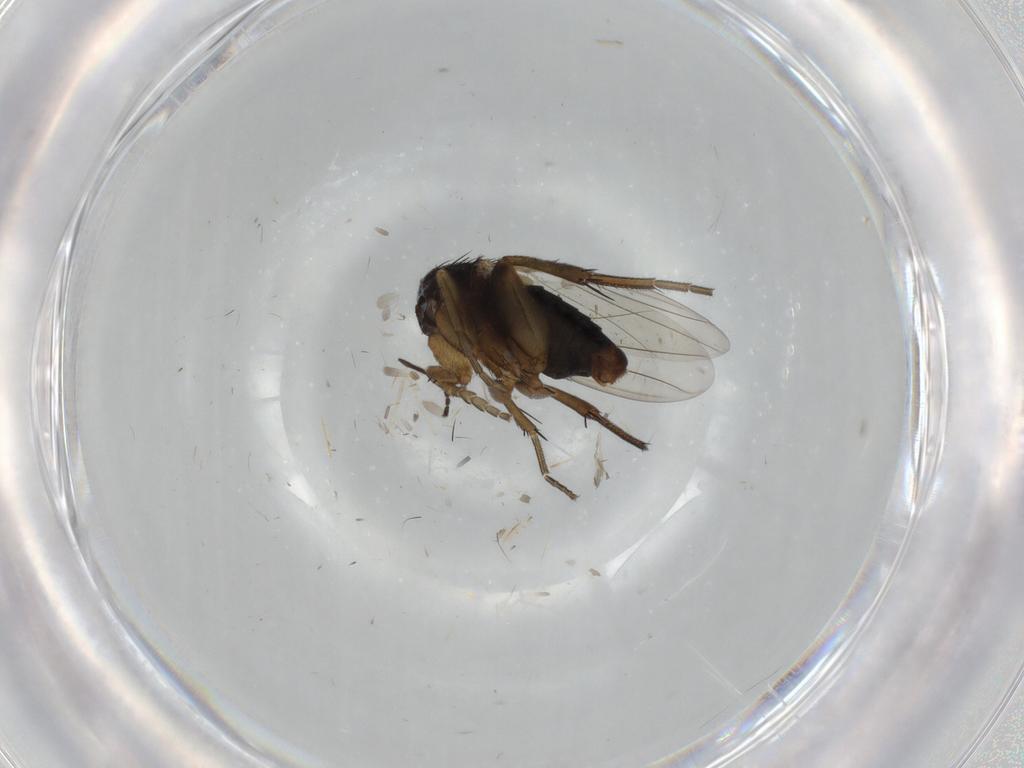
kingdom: Animalia
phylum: Arthropoda
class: Insecta
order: Diptera
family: Phoridae
